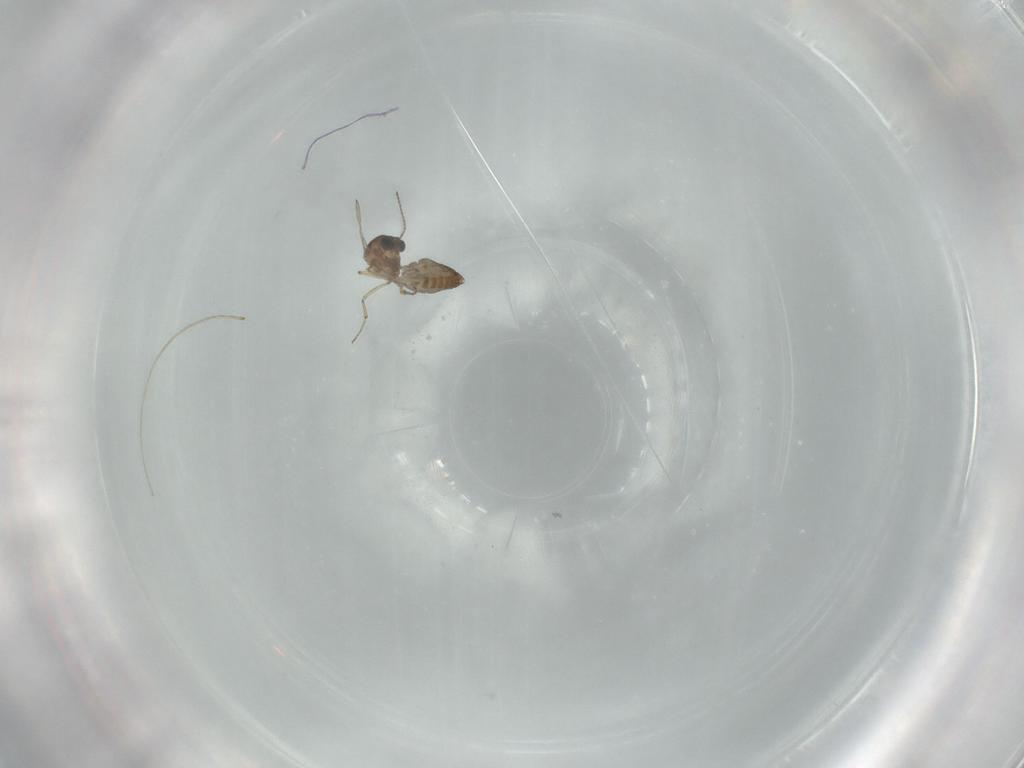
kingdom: Animalia
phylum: Arthropoda
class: Insecta
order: Diptera
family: Ceratopogonidae
